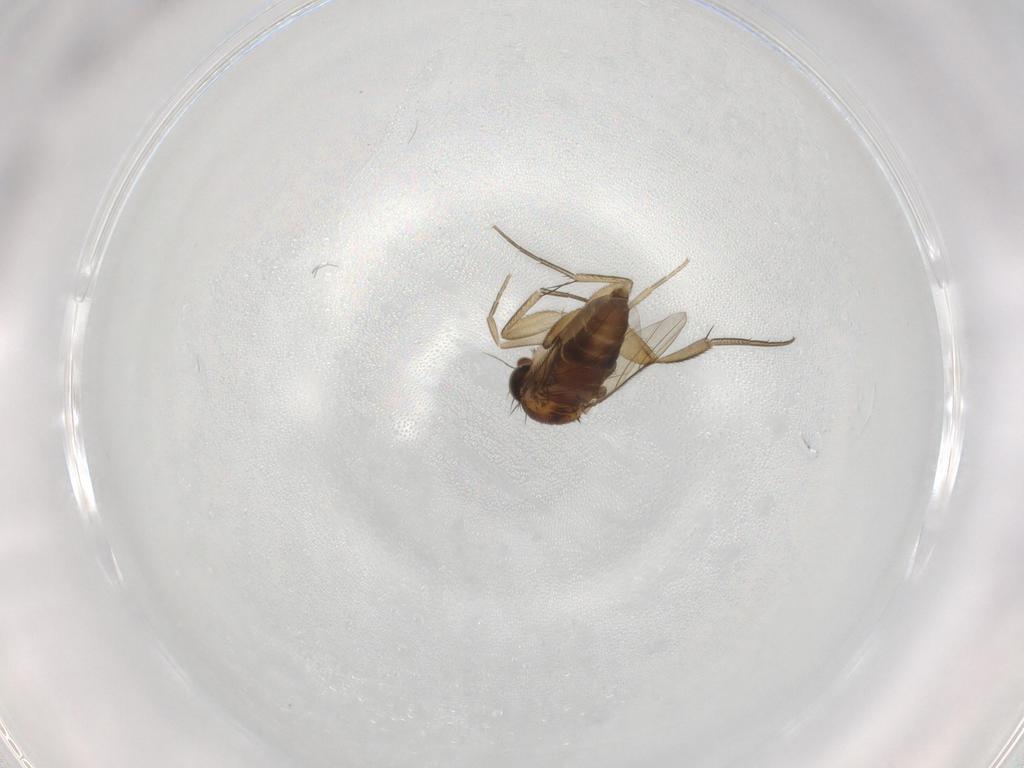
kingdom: Animalia
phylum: Arthropoda
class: Insecta
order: Diptera
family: Phoridae
